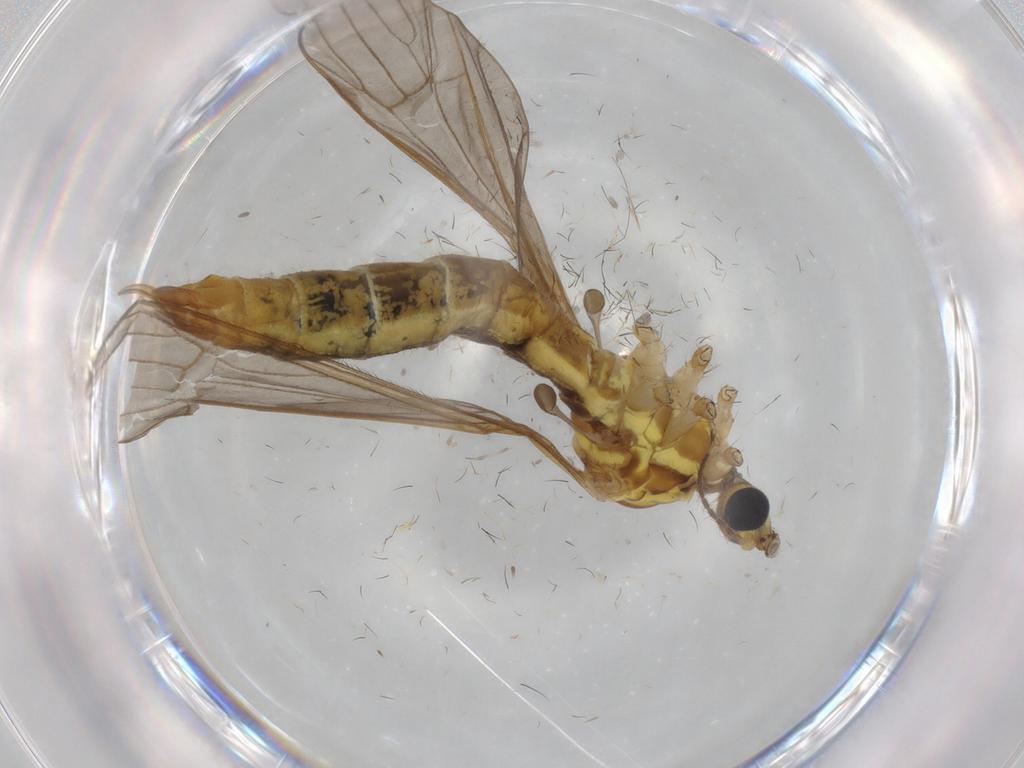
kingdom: Animalia
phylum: Arthropoda
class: Insecta
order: Diptera
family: Limoniidae
